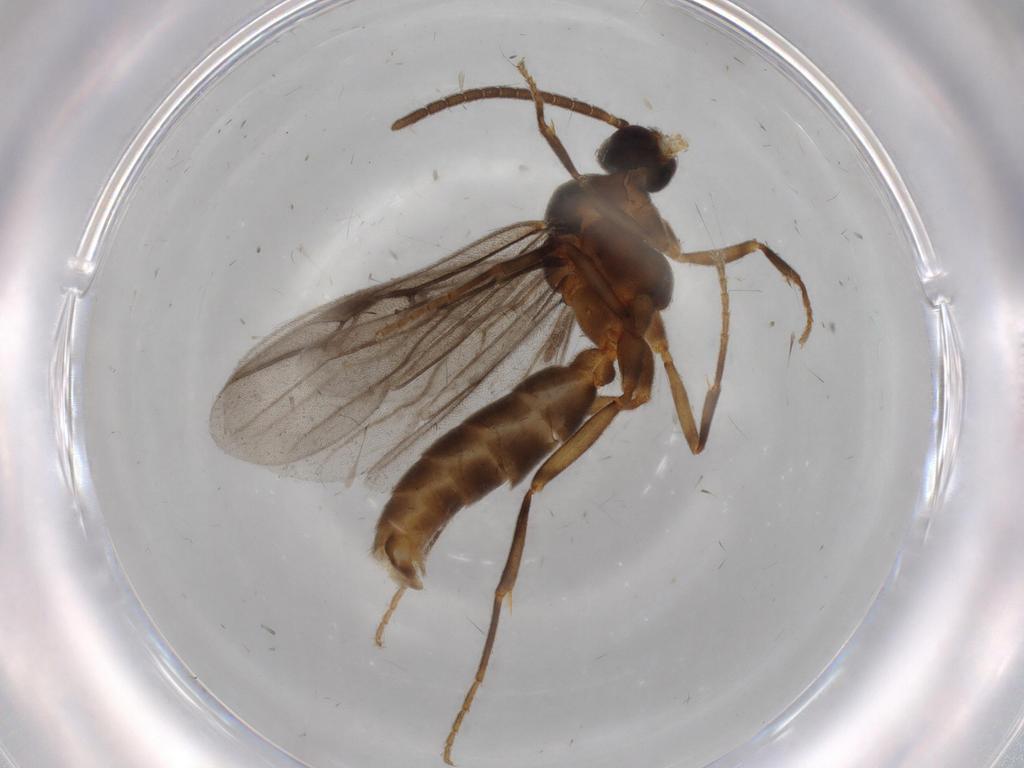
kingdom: Animalia
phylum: Arthropoda
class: Insecta
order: Hymenoptera
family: Formicidae
